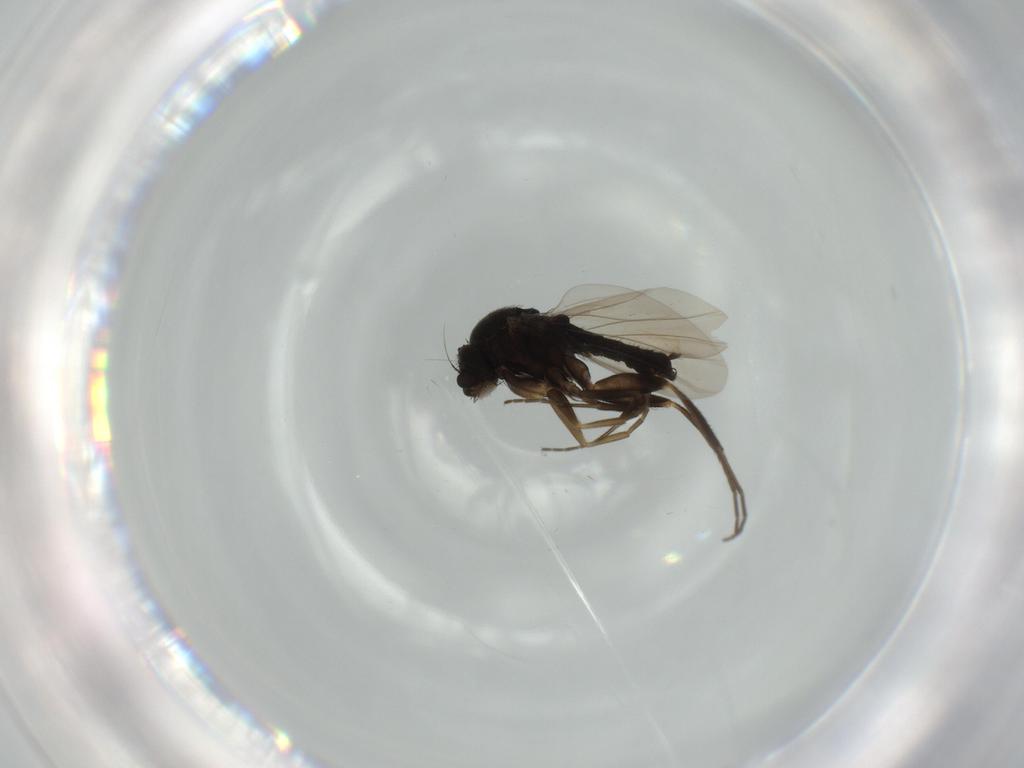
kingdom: Animalia
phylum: Arthropoda
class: Insecta
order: Diptera
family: Phoridae
